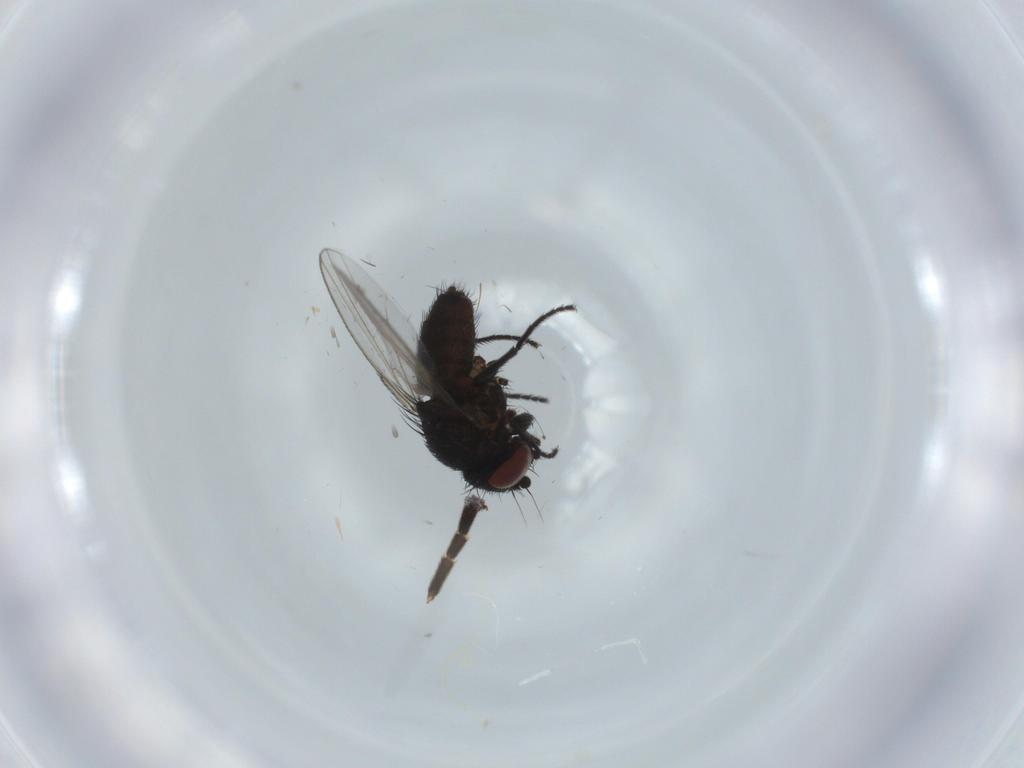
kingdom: Animalia
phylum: Arthropoda
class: Insecta
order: Diptera
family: Milichiidae
